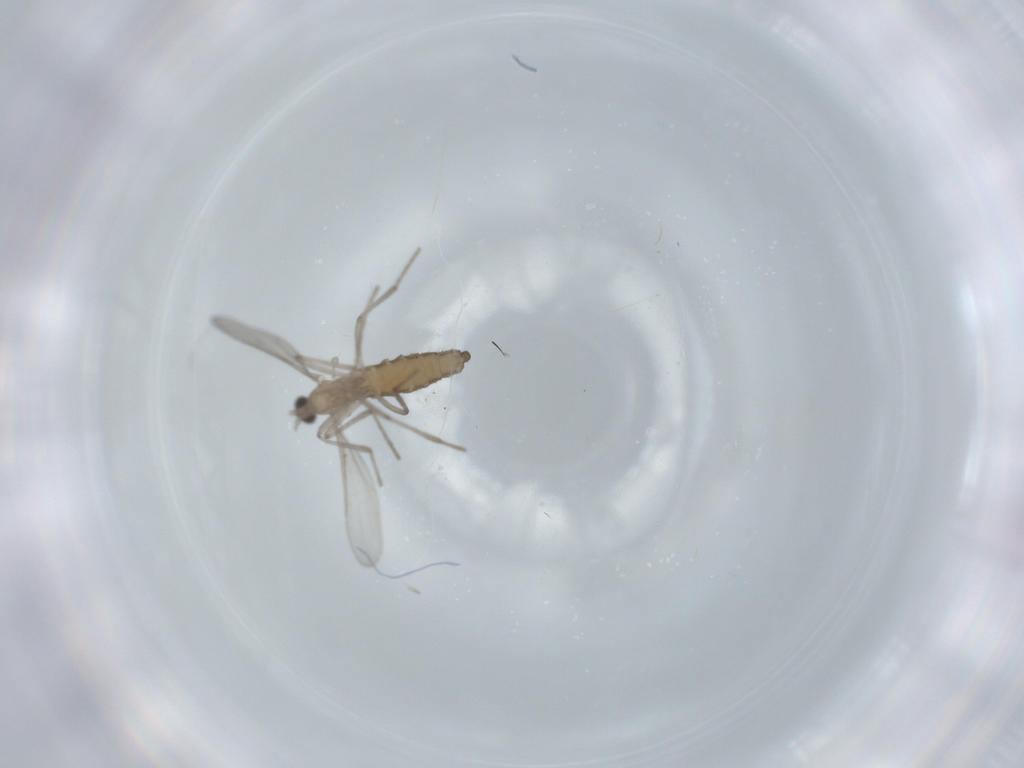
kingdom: Animalia
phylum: Arthropoda
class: Insecta
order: Diptera
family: Cecidomyiidae
